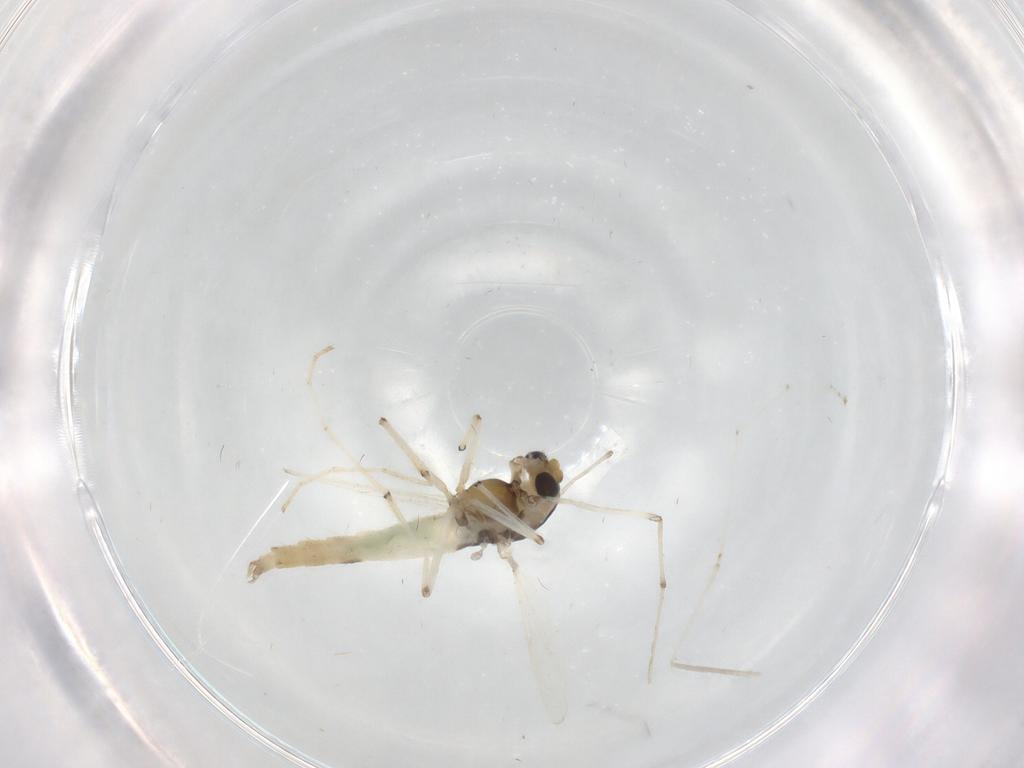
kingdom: Animalia
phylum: Arthropoda
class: Insecta
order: Diptera
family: Chironomidae
